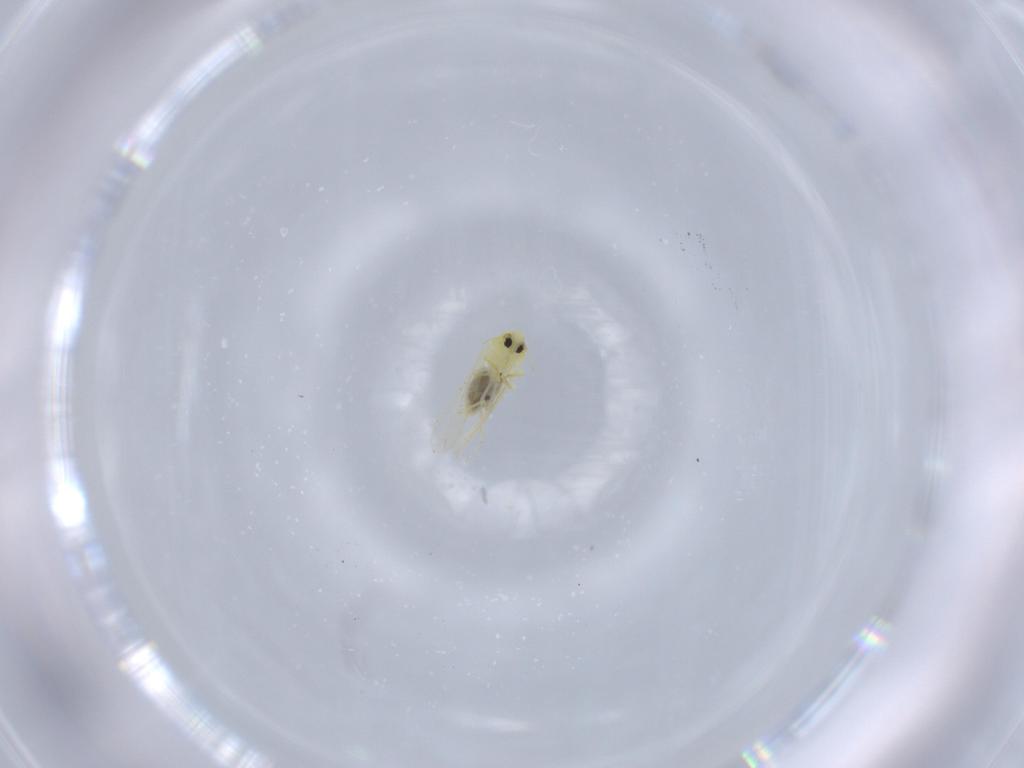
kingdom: Animalia
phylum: Arthropoda
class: Insecta
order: Hemiptera
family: Aleyrodidae
